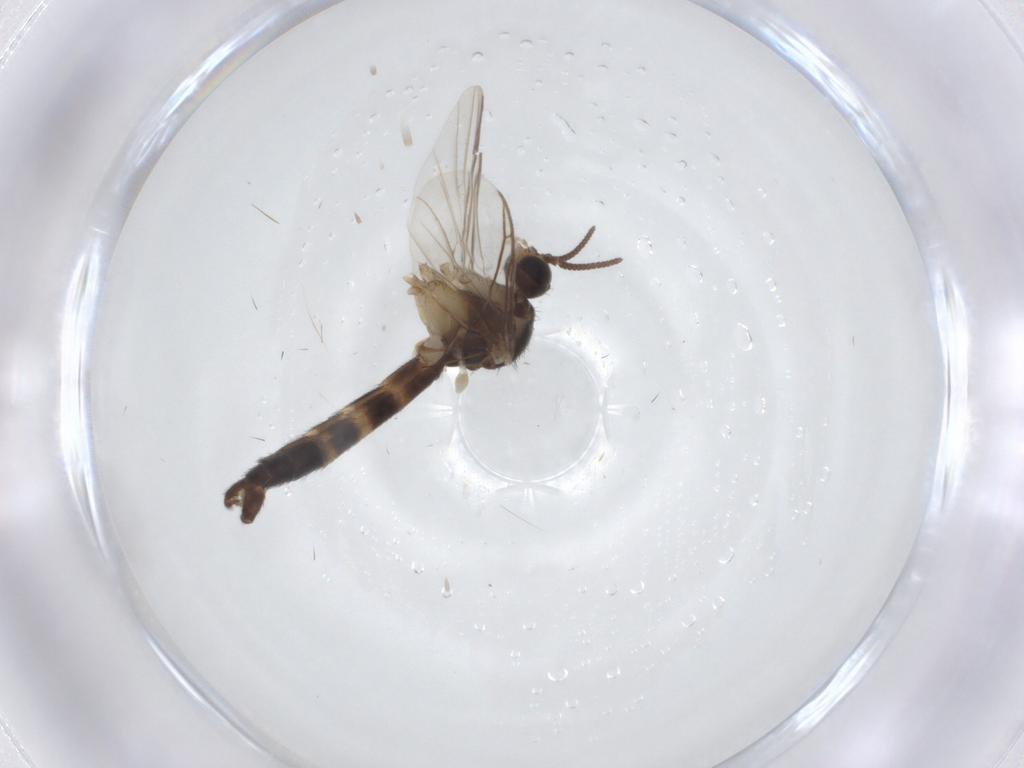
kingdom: Animalia
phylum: Arthropoda
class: Insecta
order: Diptera
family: Keroplatidae
